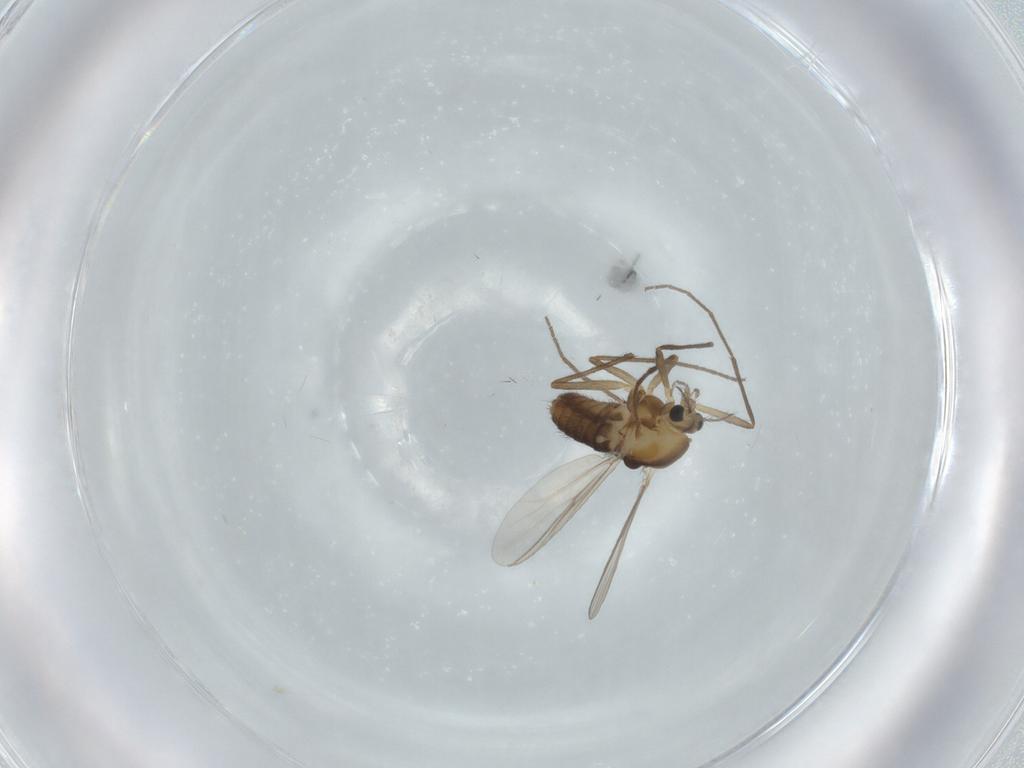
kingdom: Animalia
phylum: Arthropoda
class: Insecta
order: Diptera
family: Chironomidae
